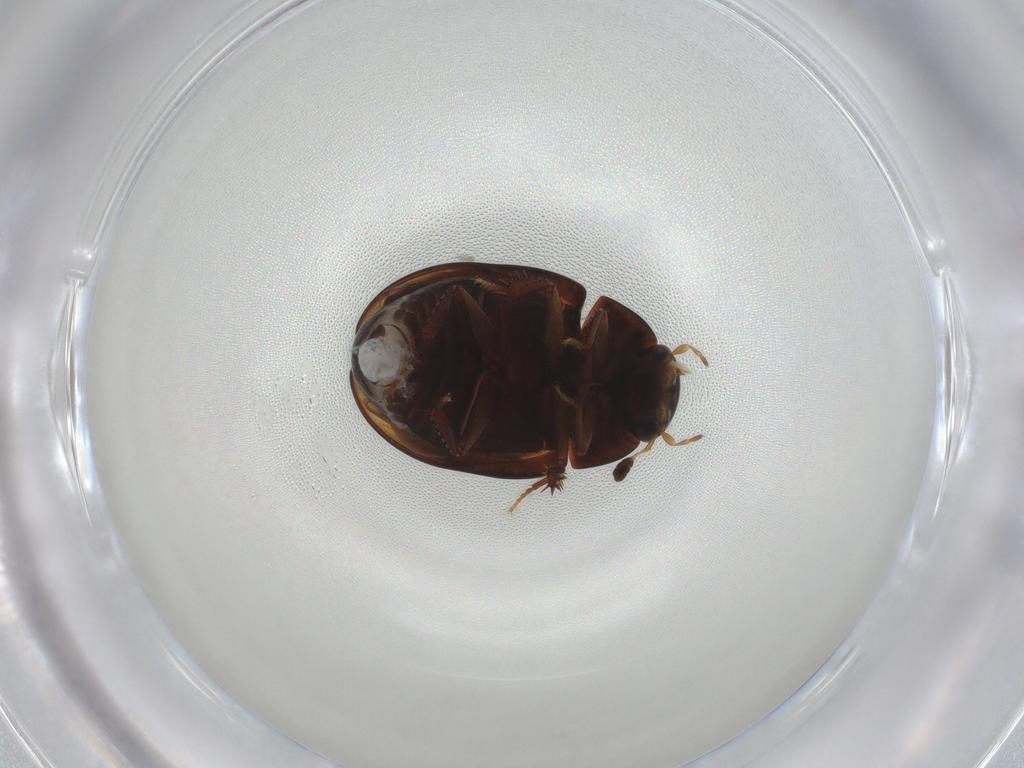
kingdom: Animalia
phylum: Arthropoda
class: Insecta
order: Coleoptera
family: Hydrophilidae
